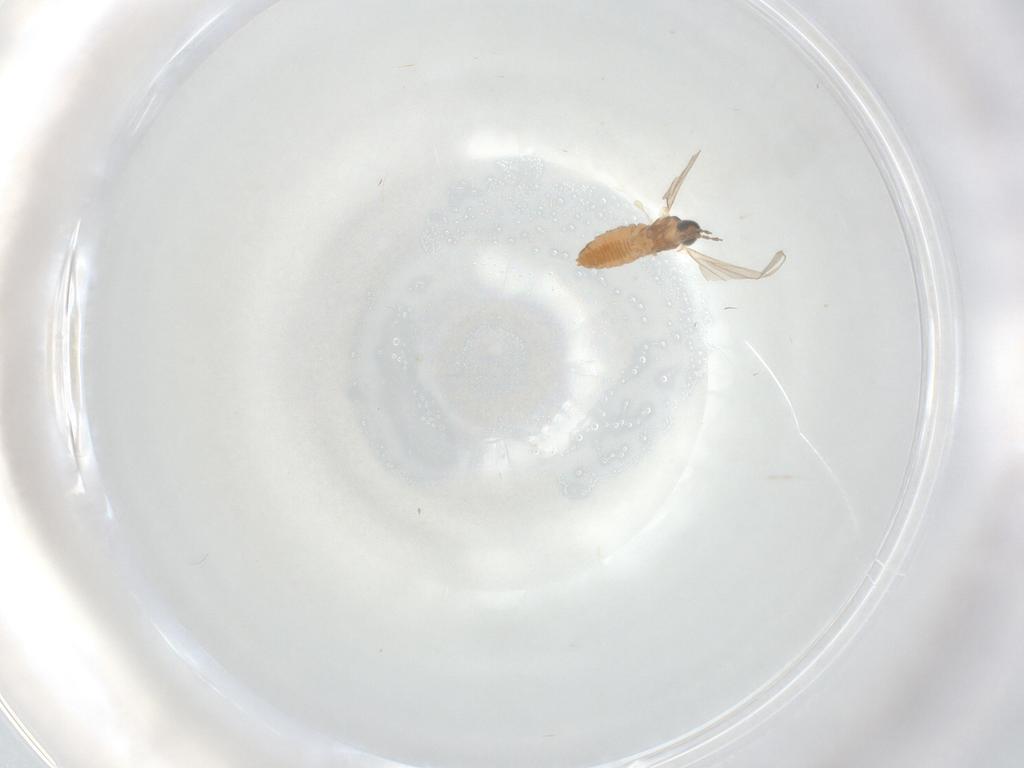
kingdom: Animalia
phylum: Arthropoda
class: Insecta
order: Diptera
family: Cecidomyiidae
